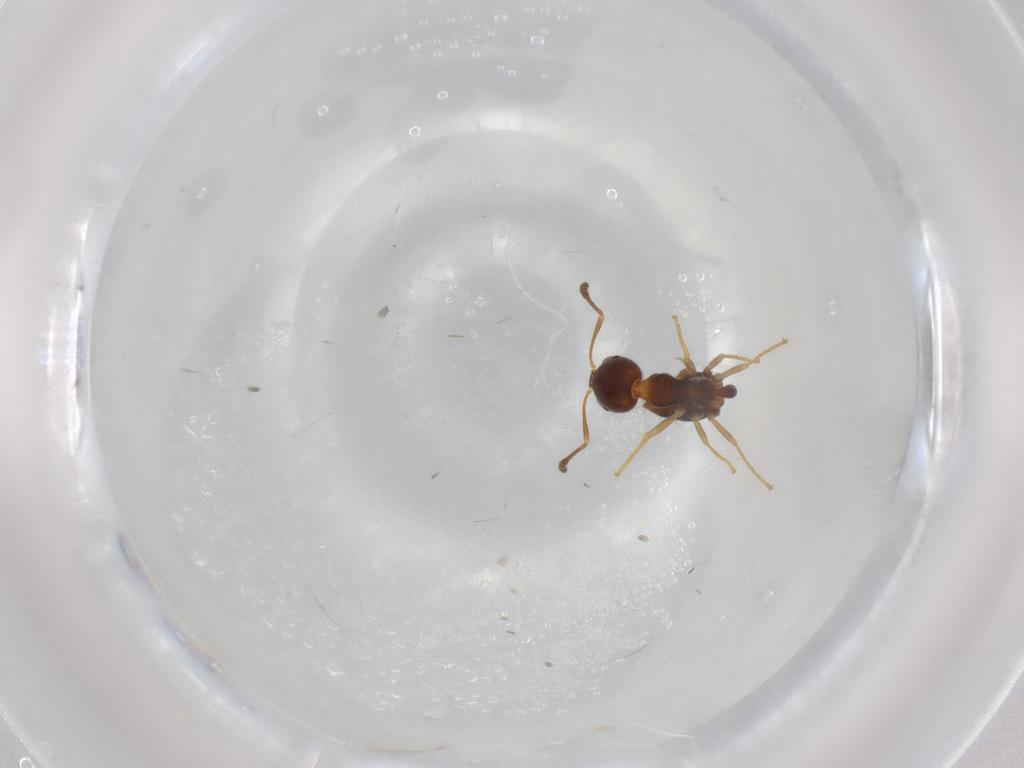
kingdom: Animalia
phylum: Arthropoda
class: Insecta
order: Hymenoptera
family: Formicidae
